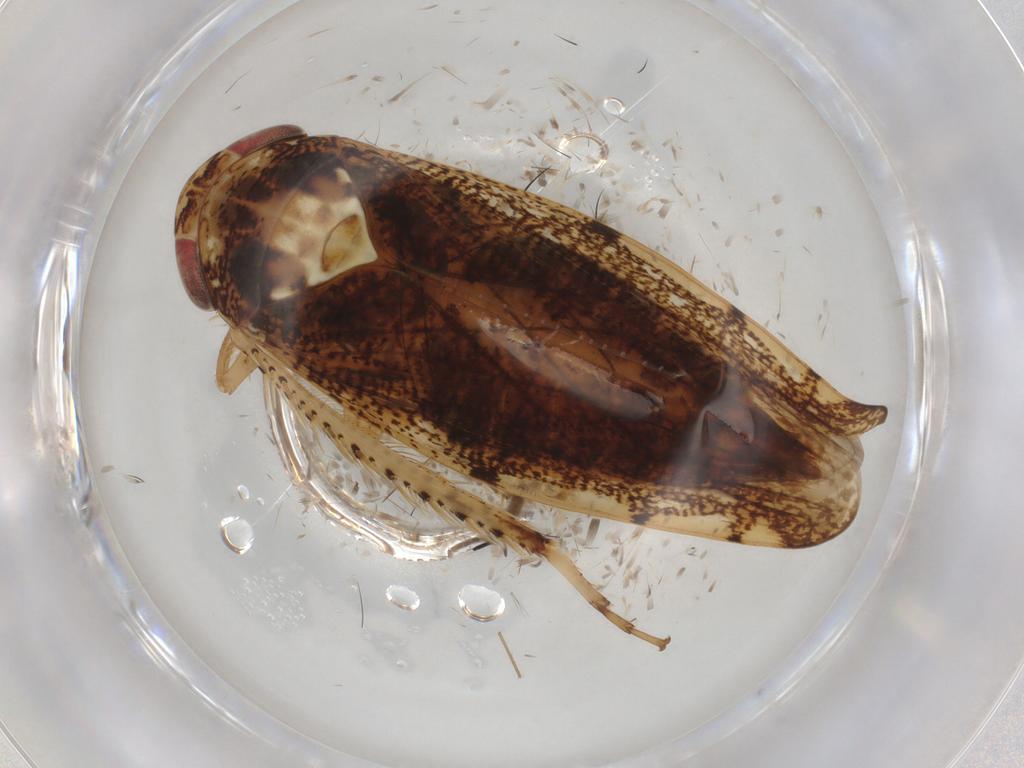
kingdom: Animalia
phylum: Arthropoda
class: Insecta
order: Hemiptera
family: Cicadellidae
